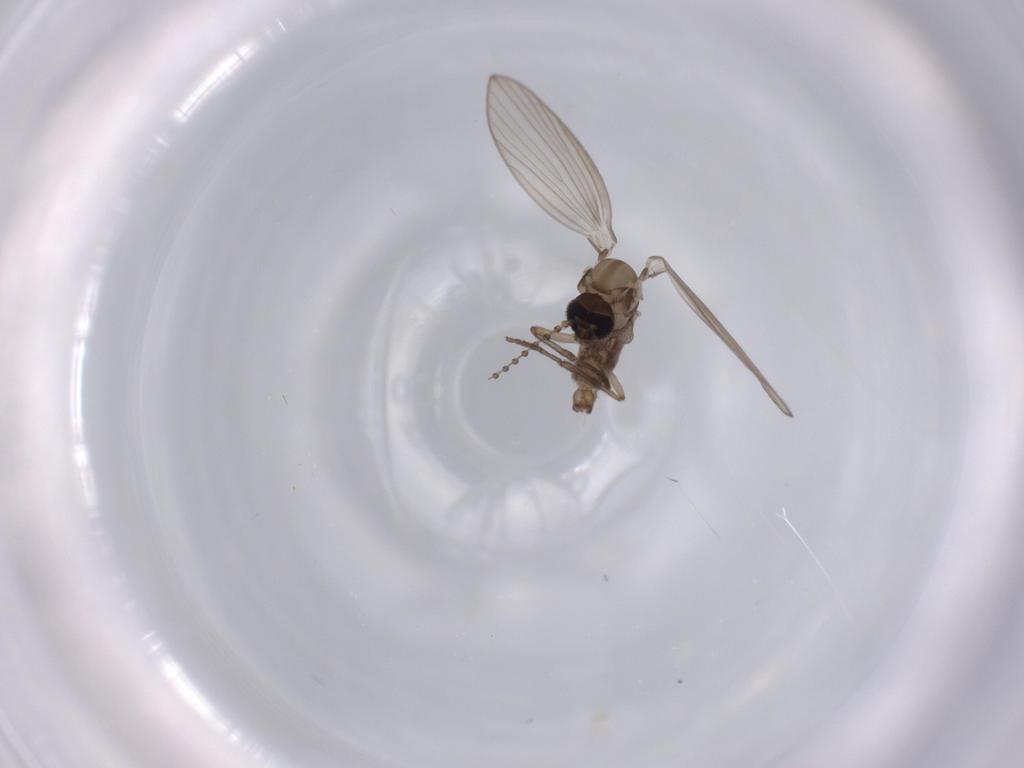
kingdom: Animalia
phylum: Arthropoda
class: Insecta
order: Diptera
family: Psychodidae
